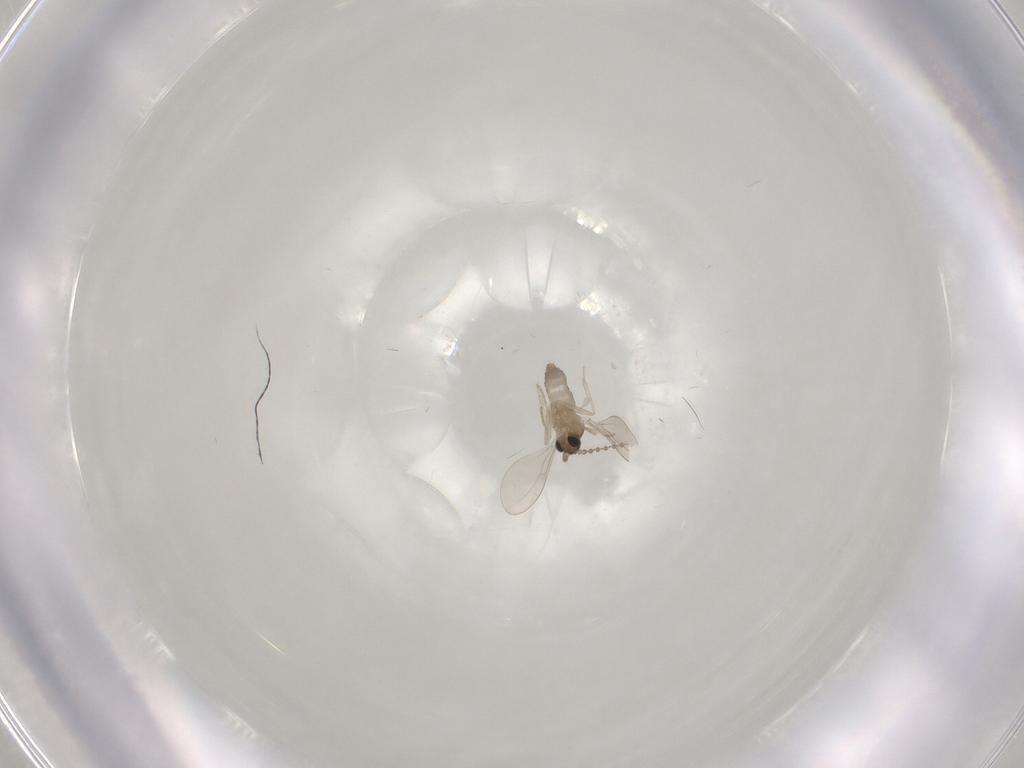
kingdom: Animalia
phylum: Arthropoda
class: Insecta
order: Diptera
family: Cecidomyiidae
